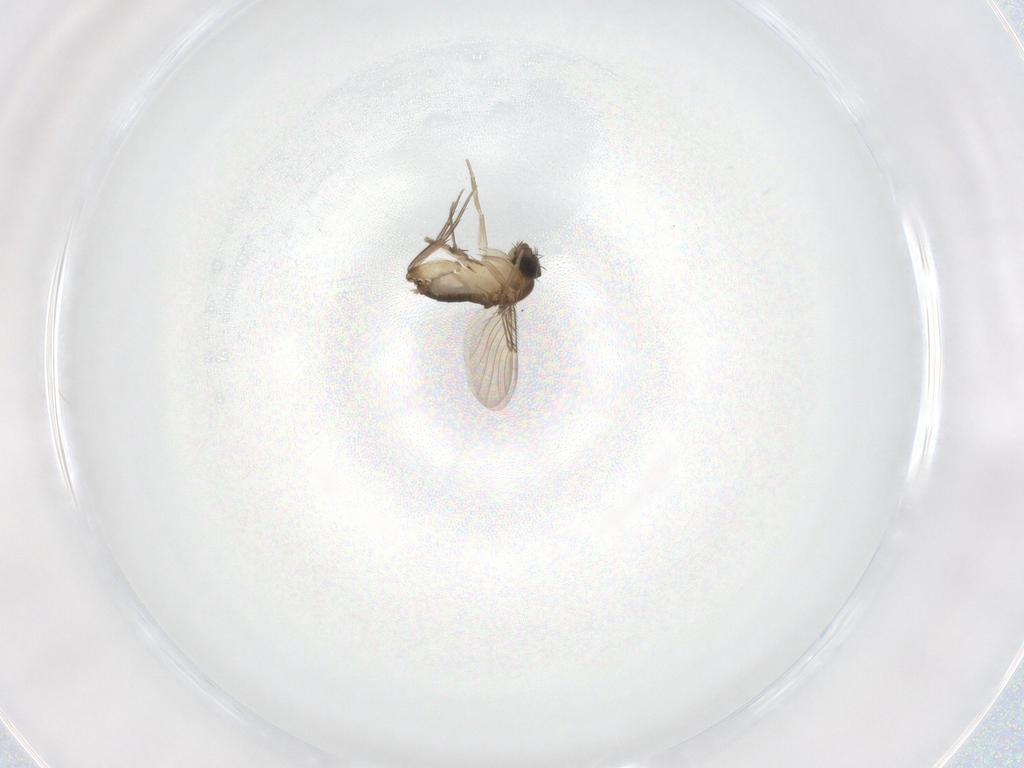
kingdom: Animalia
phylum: Arthropoda
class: Insecta
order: Diptera
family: Phoridae
